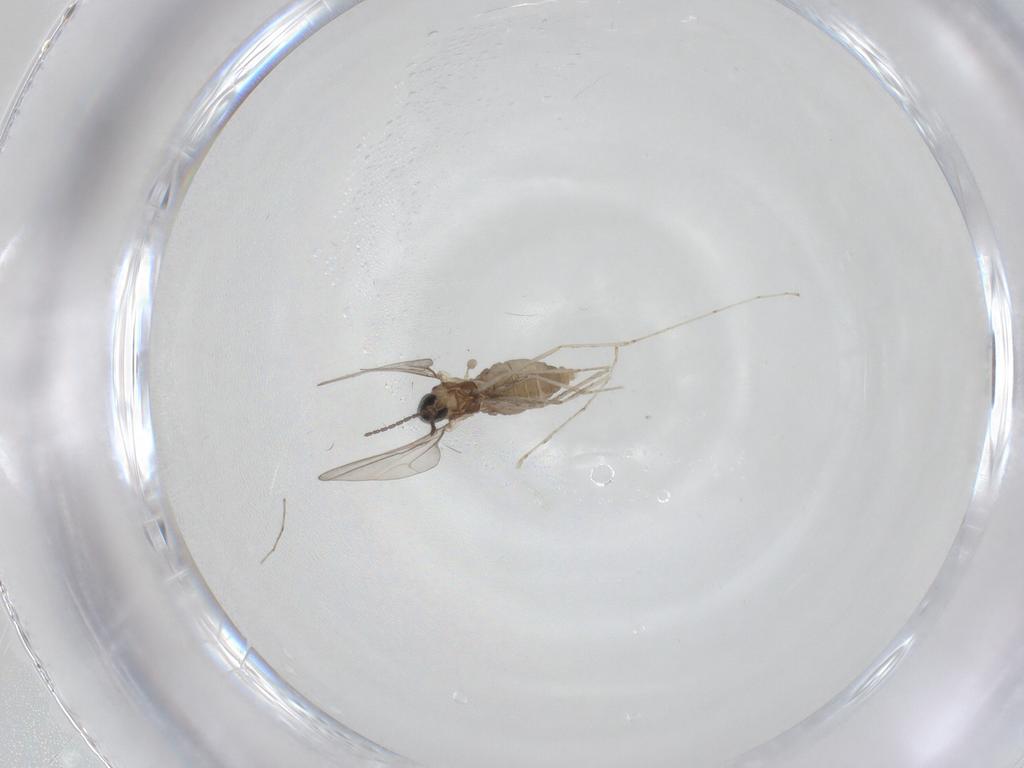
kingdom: Animalia
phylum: Arthropoda
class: Insecta
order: Diptera
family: Cecidomyiidae
